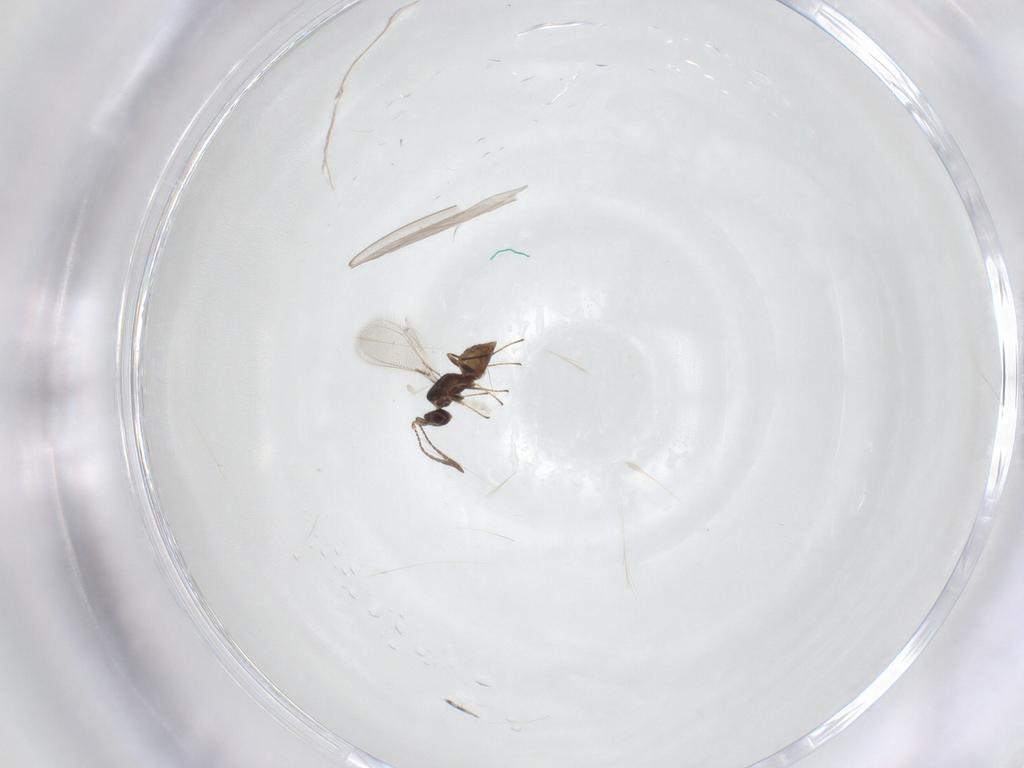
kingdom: Animalia
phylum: Arthropoda
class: Insecta
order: Hymenoptera
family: Mymaridae
